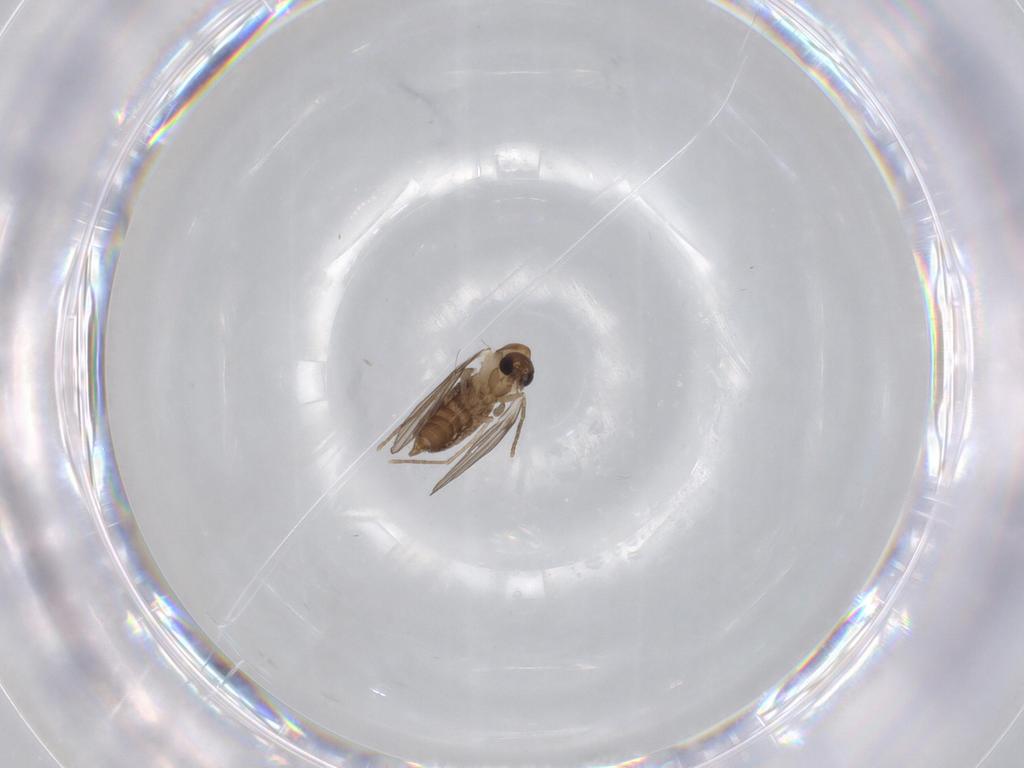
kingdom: Animalia
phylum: Arthropoda
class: Insecta
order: Diptera
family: Psychodidae
